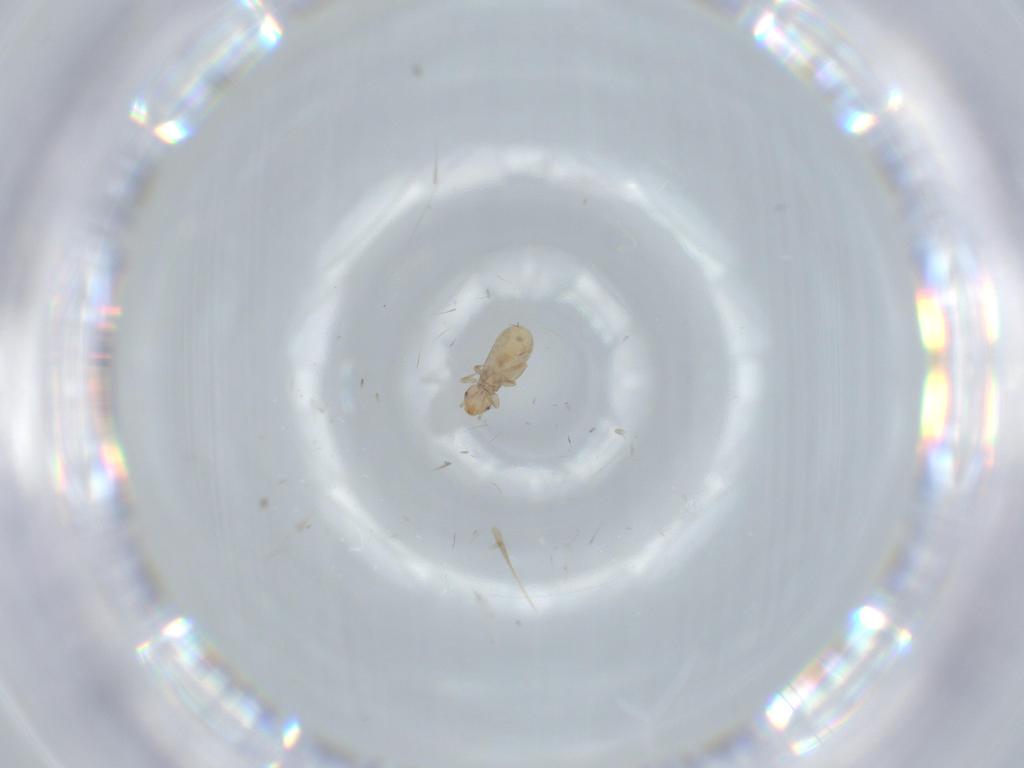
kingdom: Animalia
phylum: Arthropoda
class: Insecta
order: Psocodea
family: Liposcelididae
